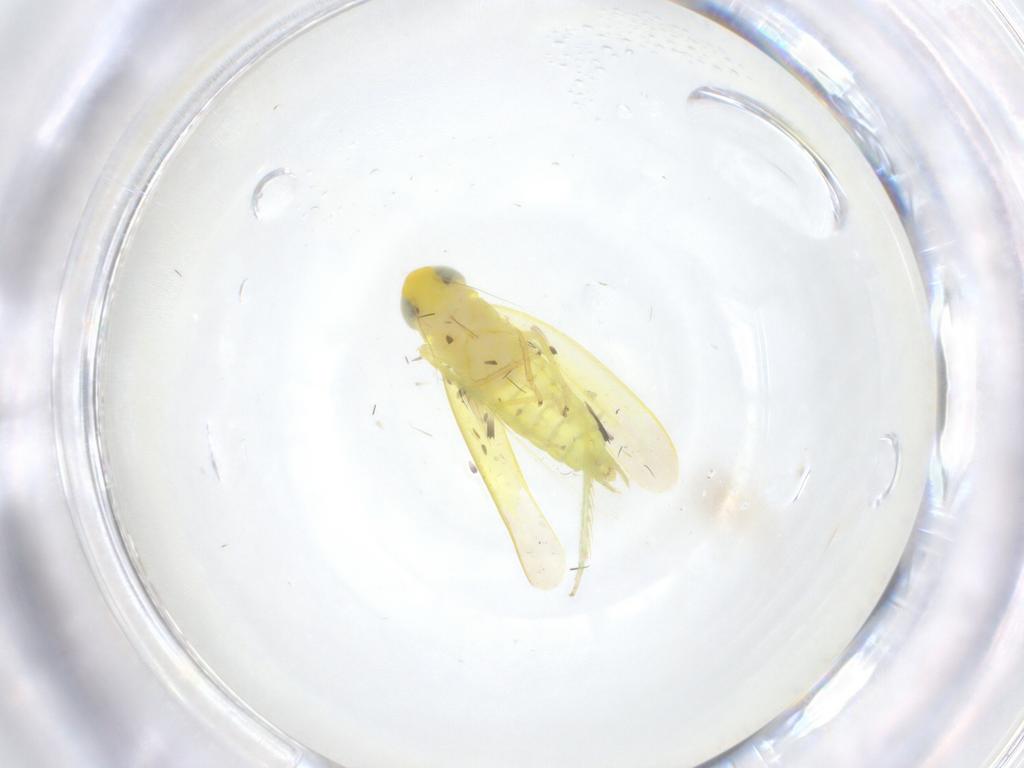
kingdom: Animalia
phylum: Arthropoda
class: Insecta
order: Hemiptera
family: Cicadellidae
